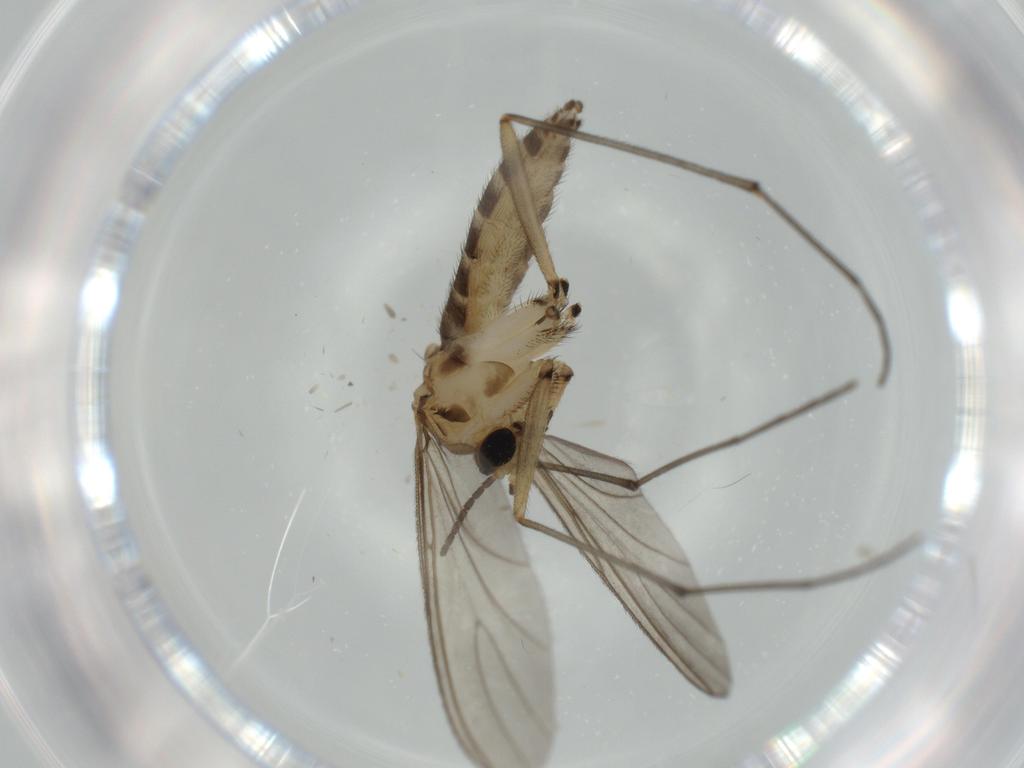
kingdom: Animalia
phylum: Arthropoda
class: Insecta
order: Diptera
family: Sciaridae
